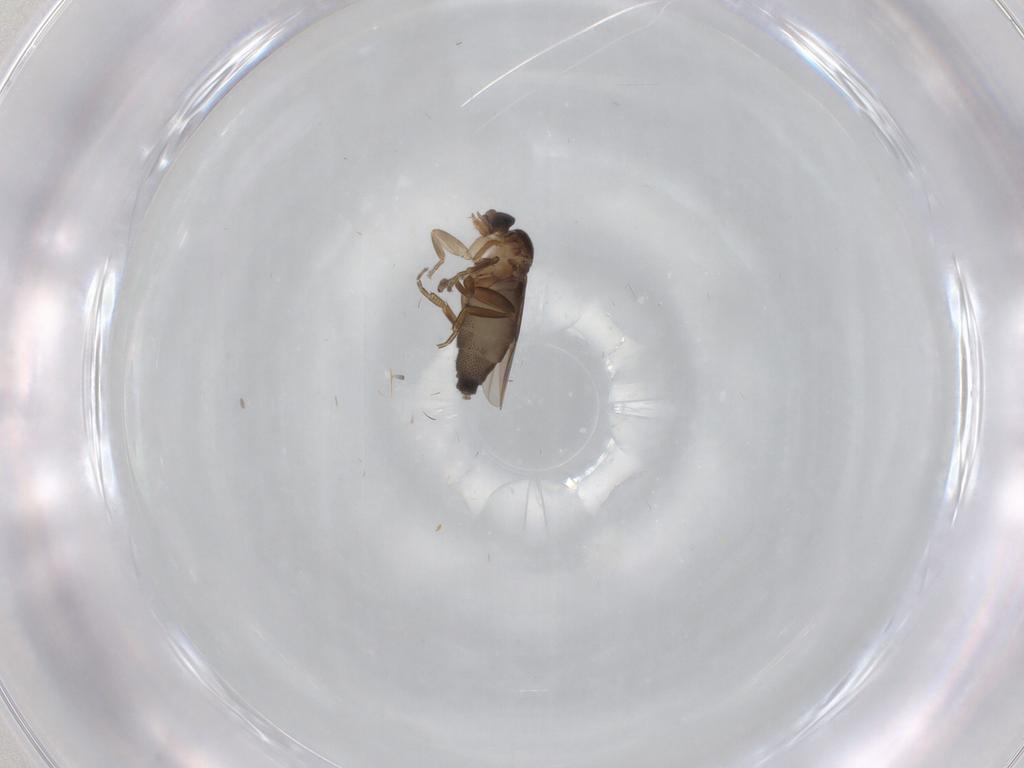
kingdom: Animalia
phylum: Arthropoda
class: Insecta
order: Diptera
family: Phoridae
